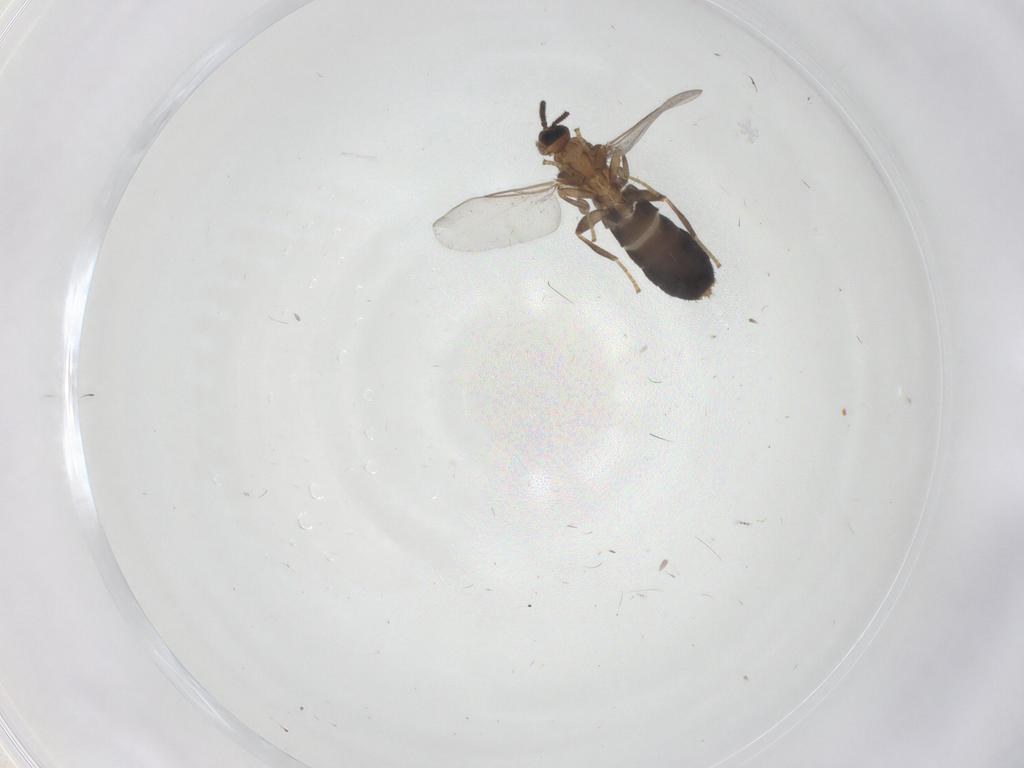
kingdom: Animalia
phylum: Arthropoda
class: Insecta
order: Diptera
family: Scatopsidae
